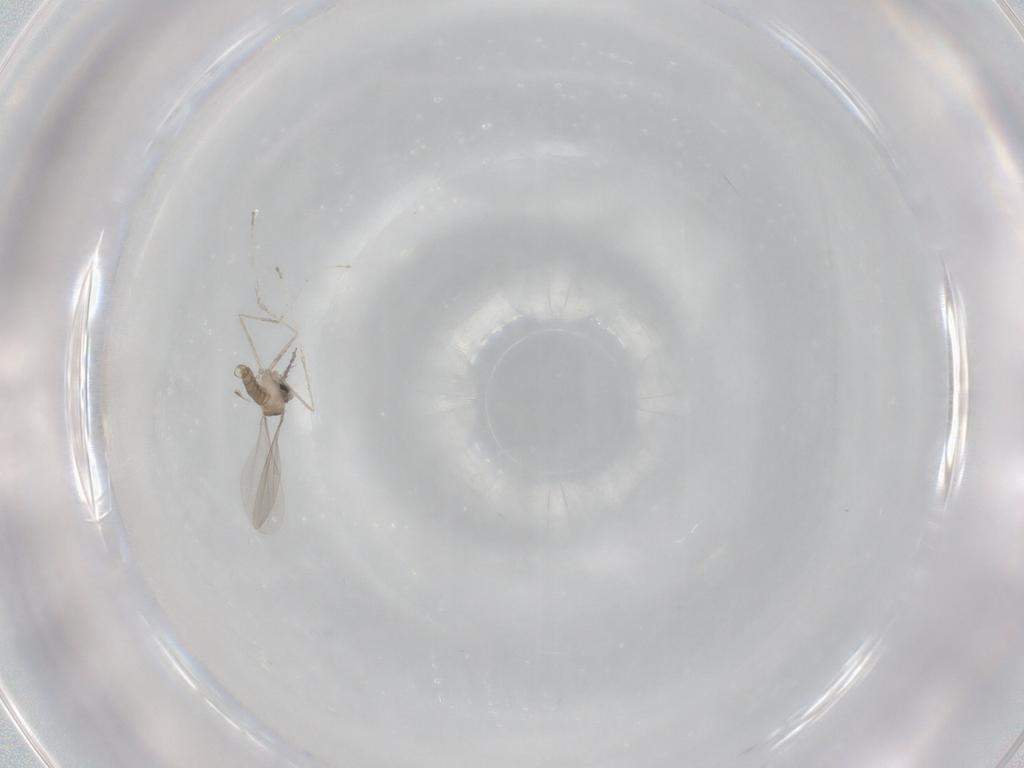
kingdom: Animalia
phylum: Arthropoda
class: Insecta
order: Diptera
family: Cecidomyiidae
